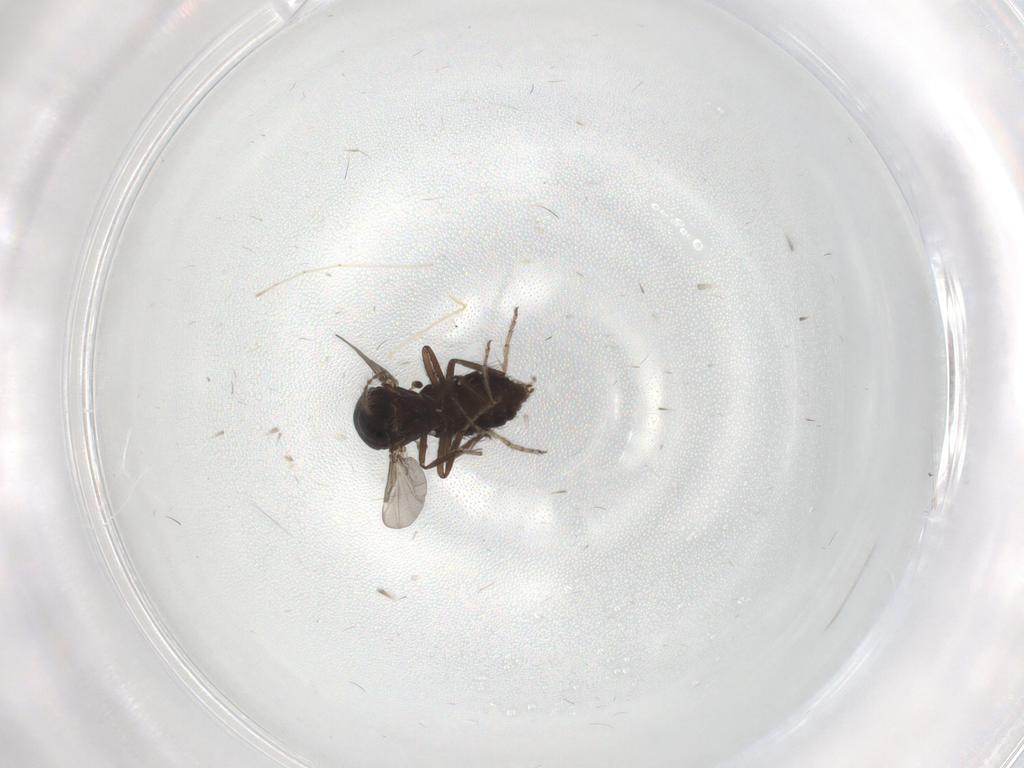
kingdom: Animalia
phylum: Arthropoda
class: Insecta
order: Diptera
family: Ceratopogonidae
